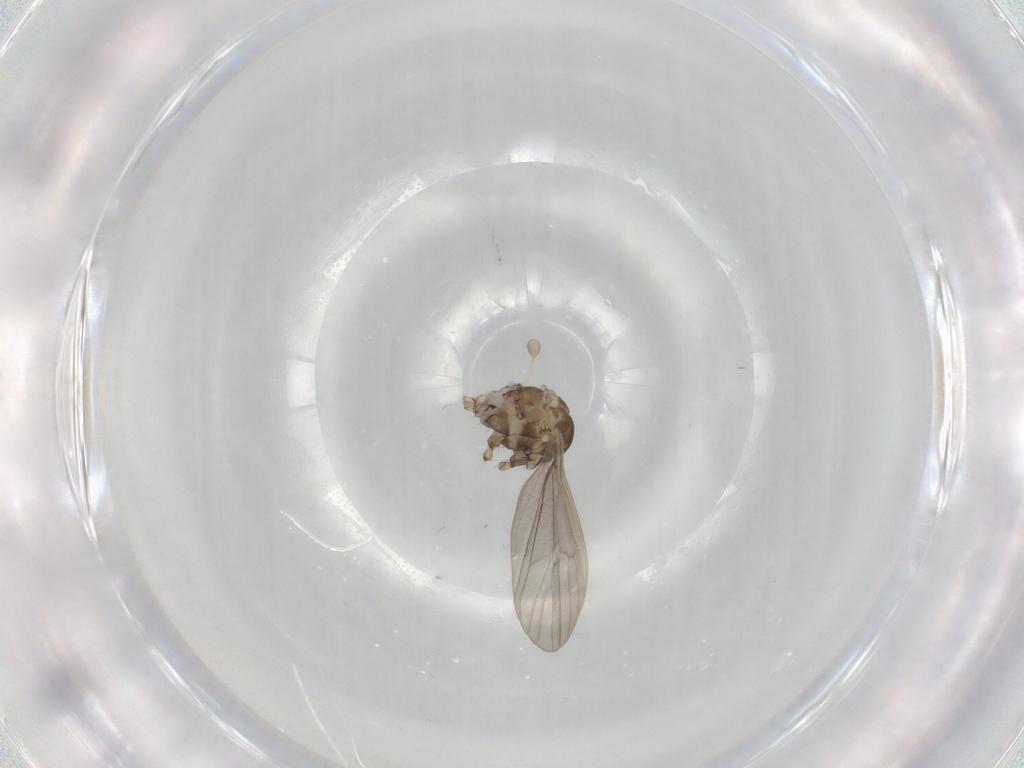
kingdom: Animalia
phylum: Arthropoda
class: Insecta
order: Diptera
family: Limoniidae
